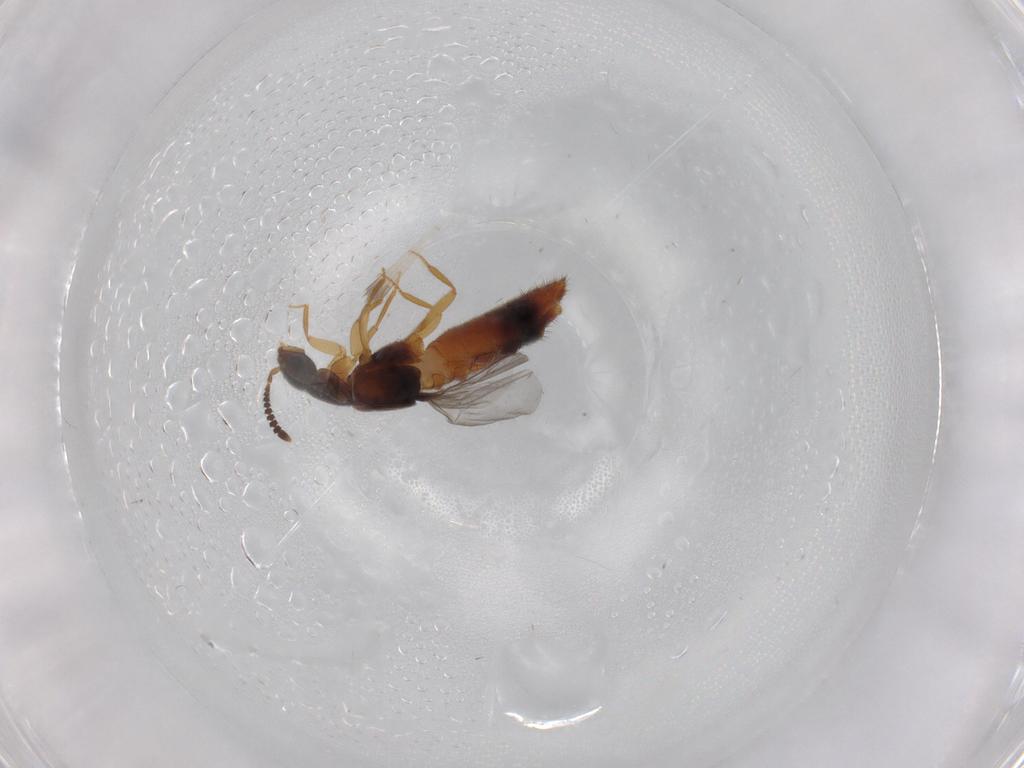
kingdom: Animalia
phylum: Arthropoda
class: Insecta
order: Coleoptera
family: Staphylinidae
